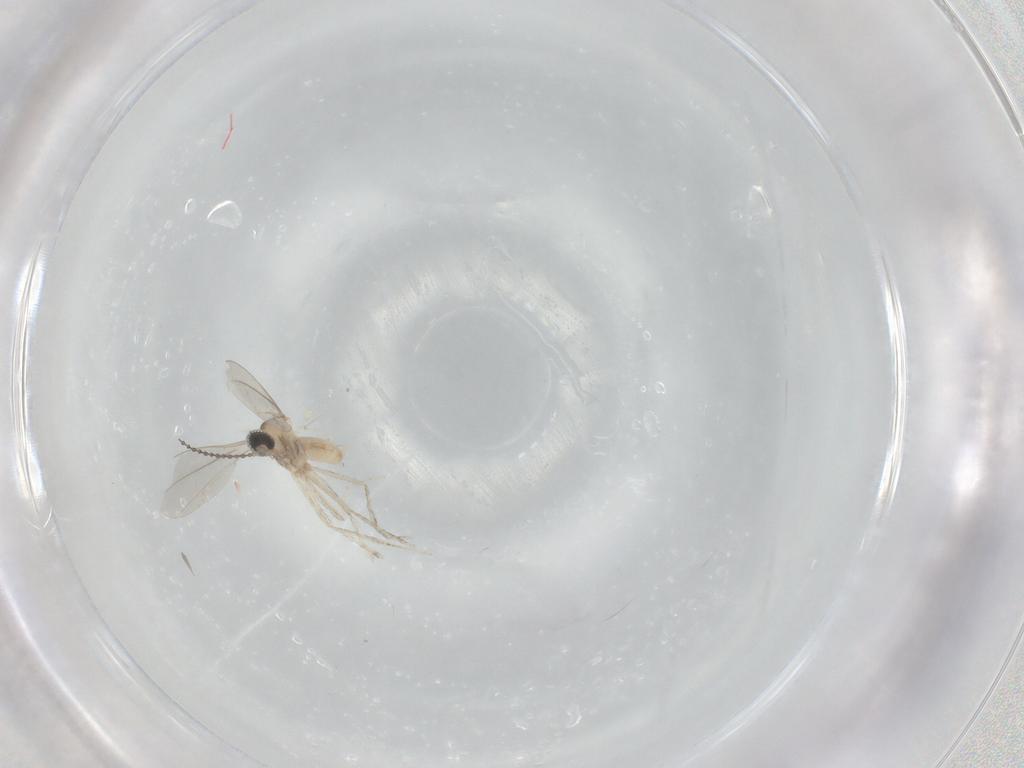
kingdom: Animalia
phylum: Arthropoda
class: Insecta
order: Diptera
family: Cecidomyiidae
